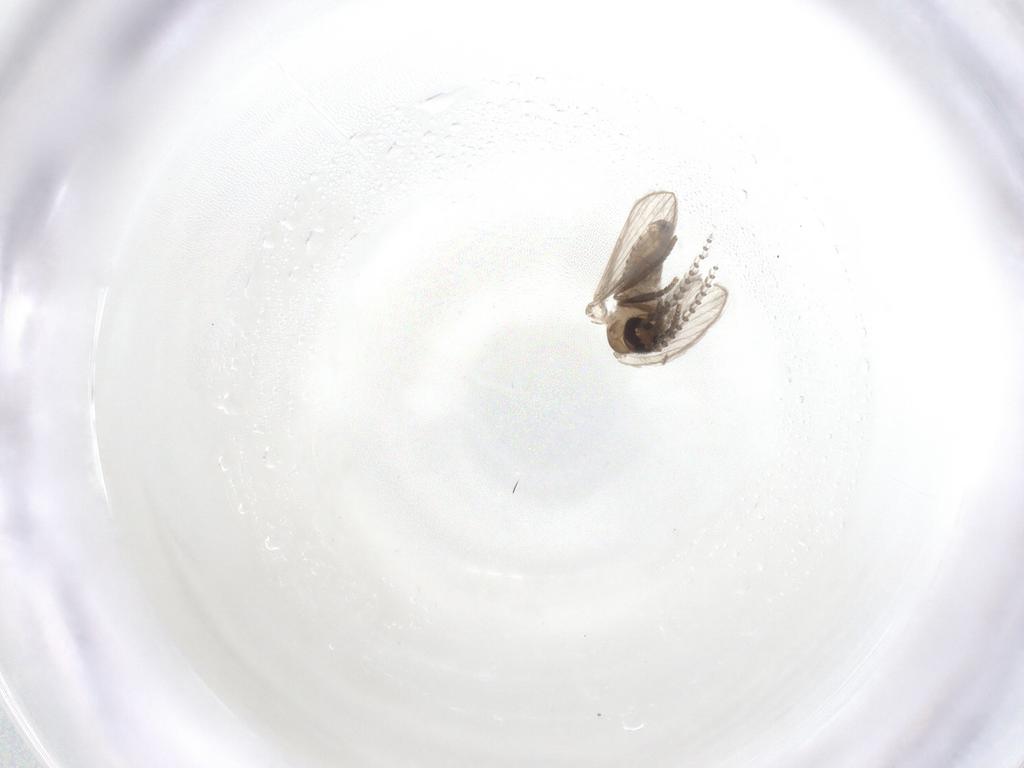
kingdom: Animalia
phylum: Arthropoda
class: Insecta
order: Diptera
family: Psychodidae
